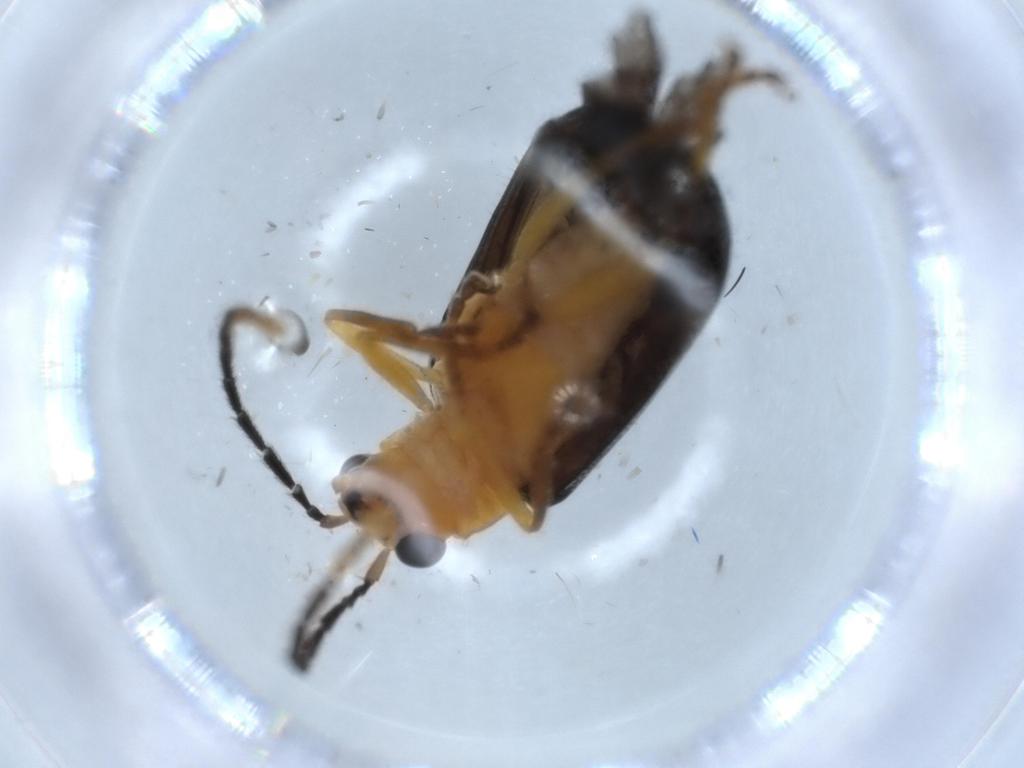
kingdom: Animalia
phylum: Arthropoda
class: Insecta
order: Coleoptera
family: Chrysomelidae
